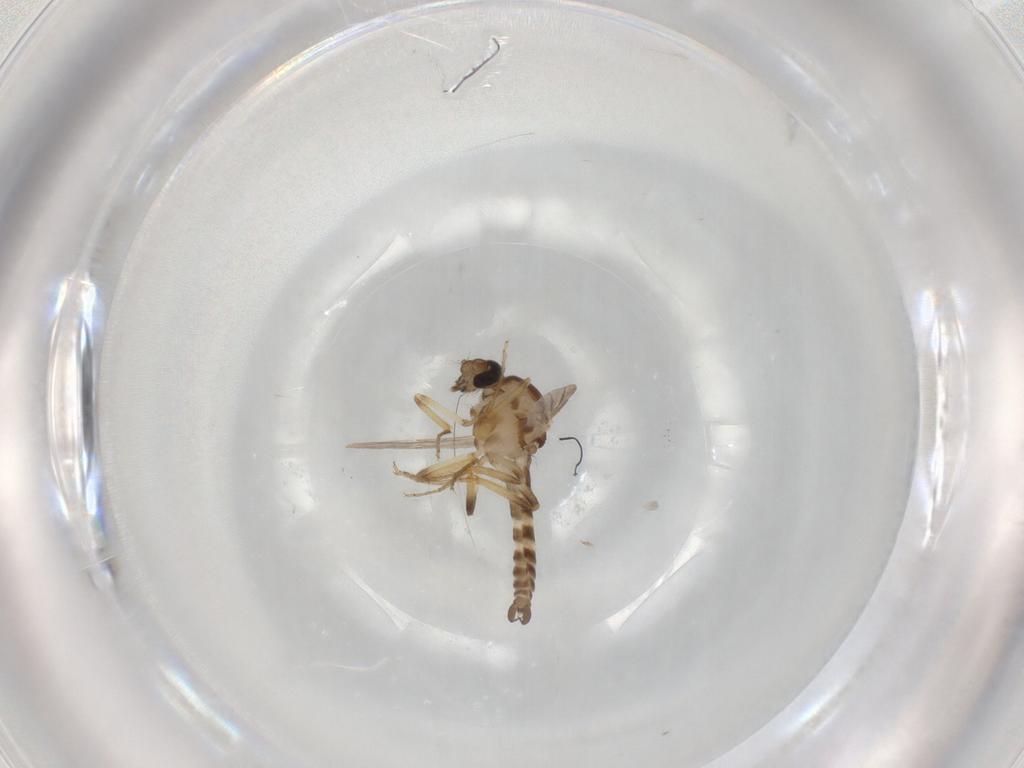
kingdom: Animalia
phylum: Arthropoda
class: Insecta
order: Diptera
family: Ceratopogonidae
